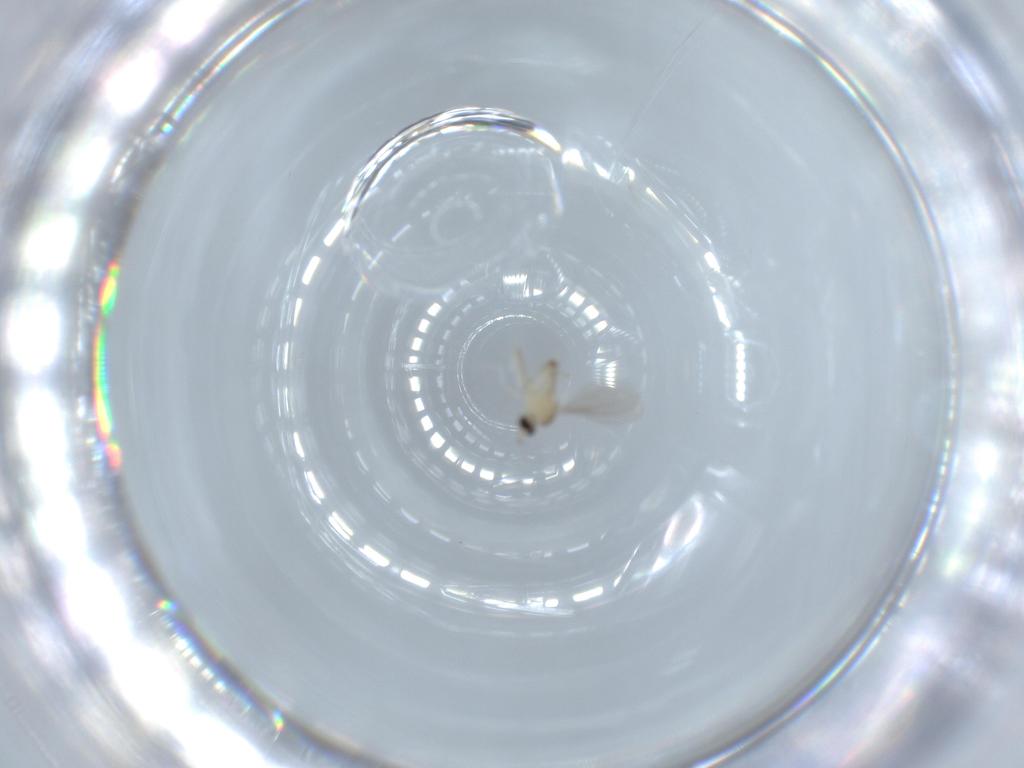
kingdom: Animalia
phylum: Arthropoda
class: Insecta
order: Diptera
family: Cecidomyiidae
